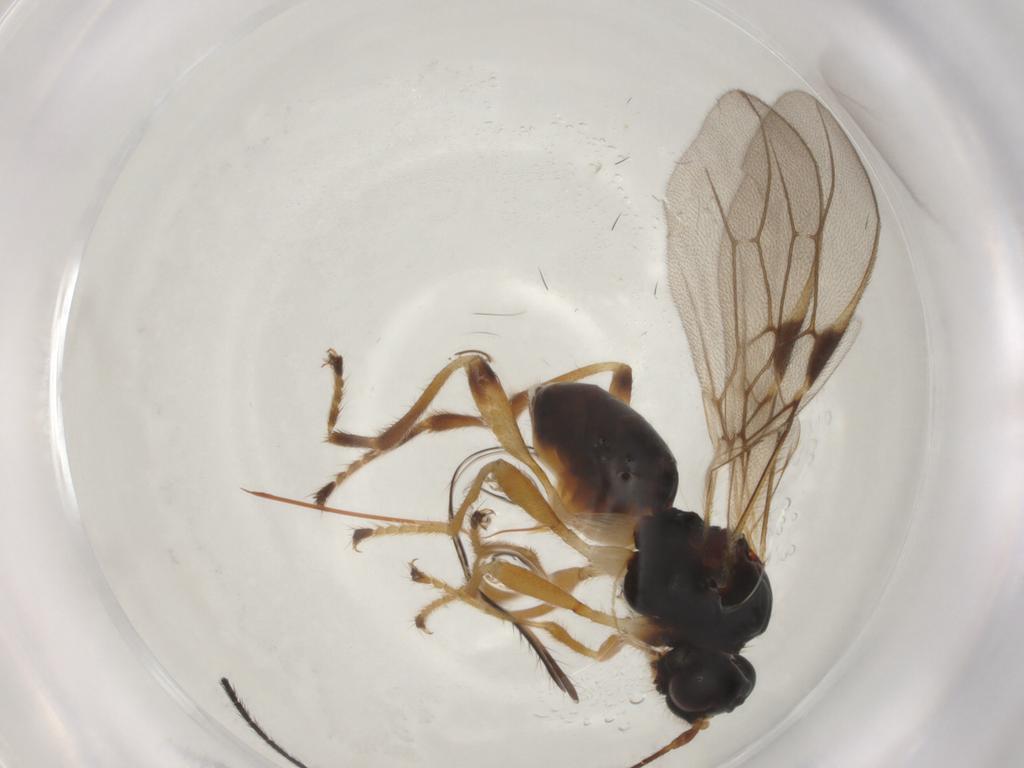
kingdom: Animalia
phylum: Arthropoda
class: Insecta
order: Hymenoptera
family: Braconidae
